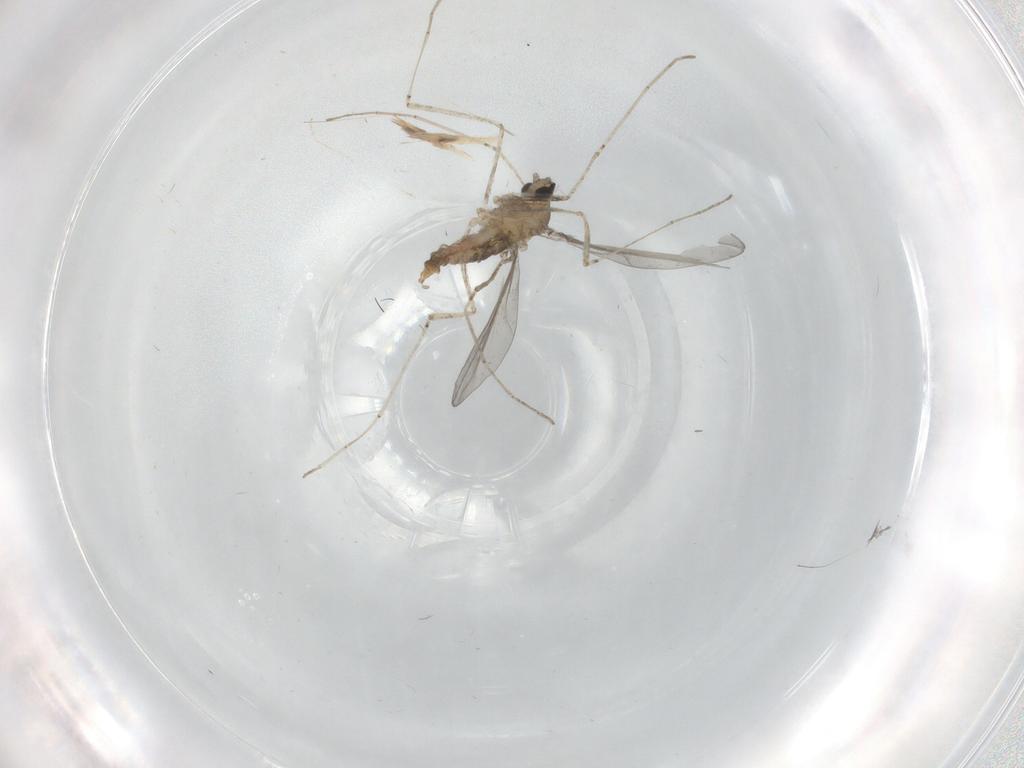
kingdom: Animalia
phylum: Arthropoda
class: Insecta
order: Diptera
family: Cecidomyiidae
